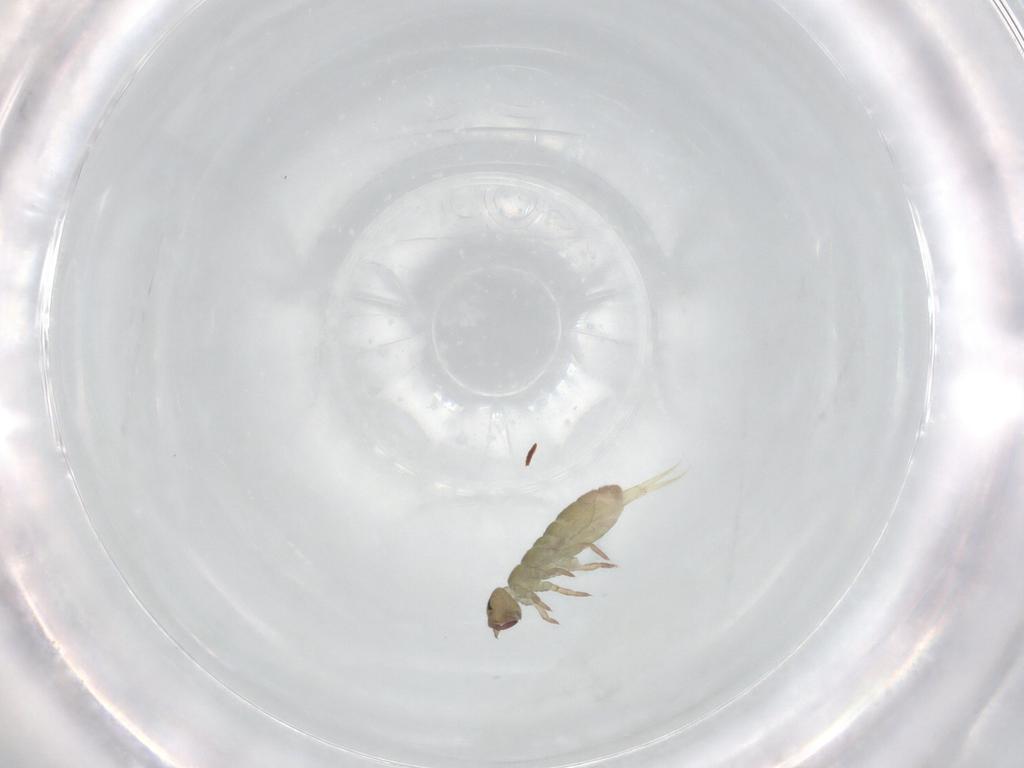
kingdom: Animalia
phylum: Arthropoda
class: Collembola
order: Entomobryomorpha
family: Isotomidae
